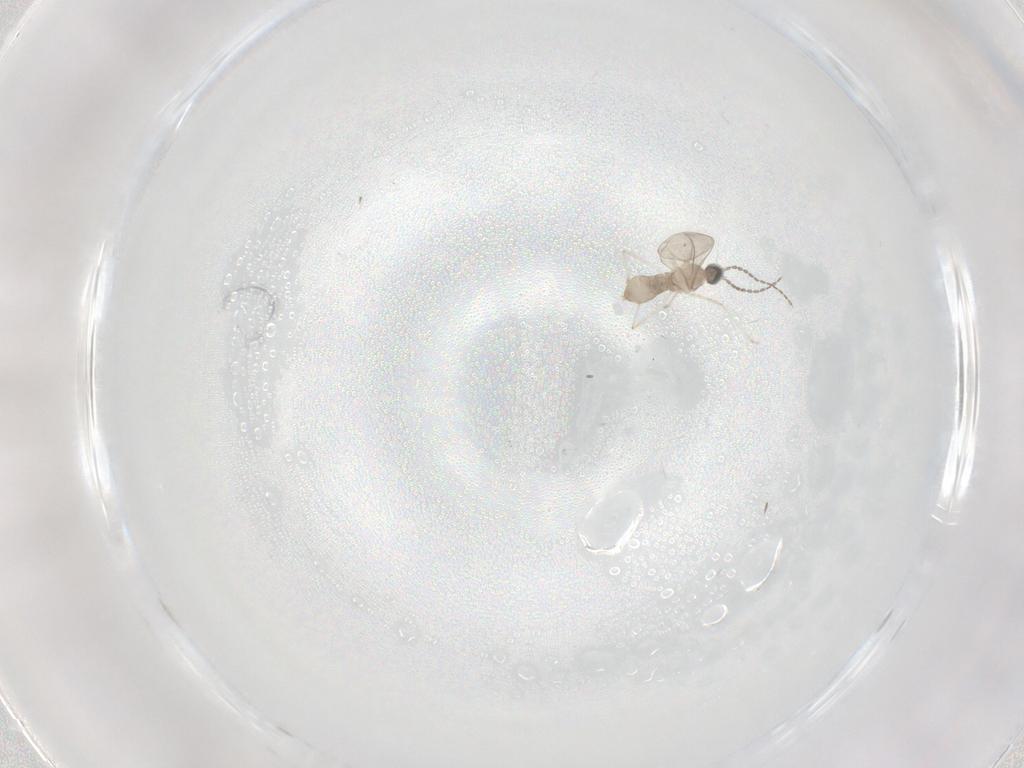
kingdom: Animalia
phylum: Arthropoda
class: Insecta
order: Diptera
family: Cecidomyiidae
